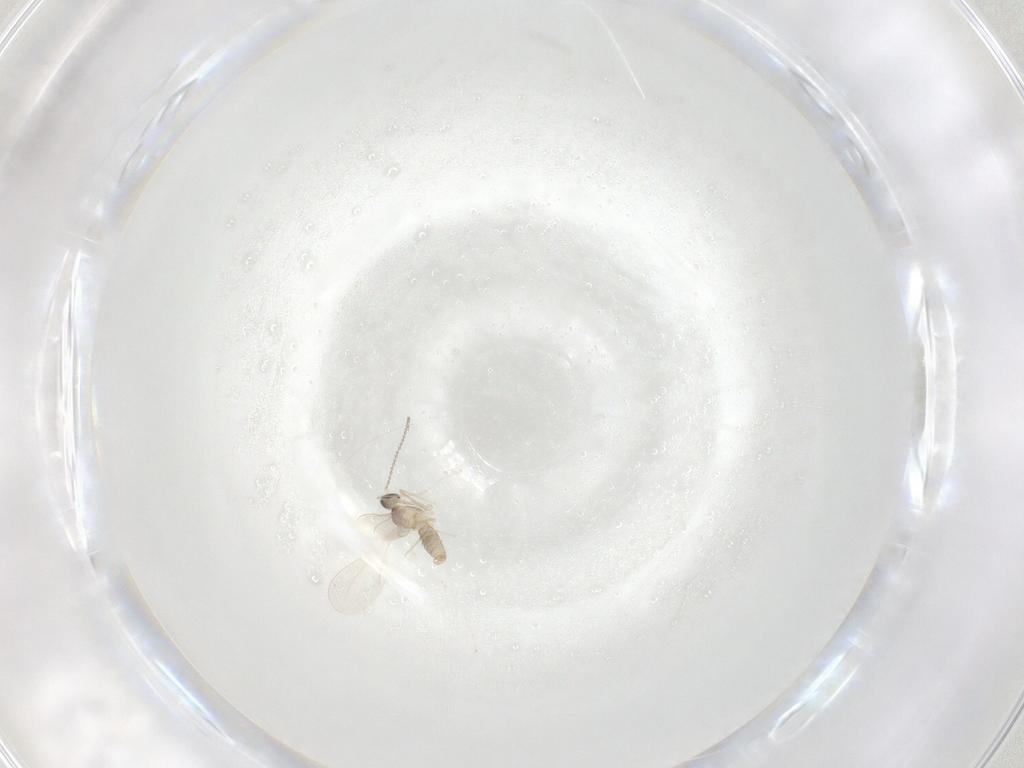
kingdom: Animalia
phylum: Arthropoda
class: Insecta
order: Diptera
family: Cecidomyiidae
